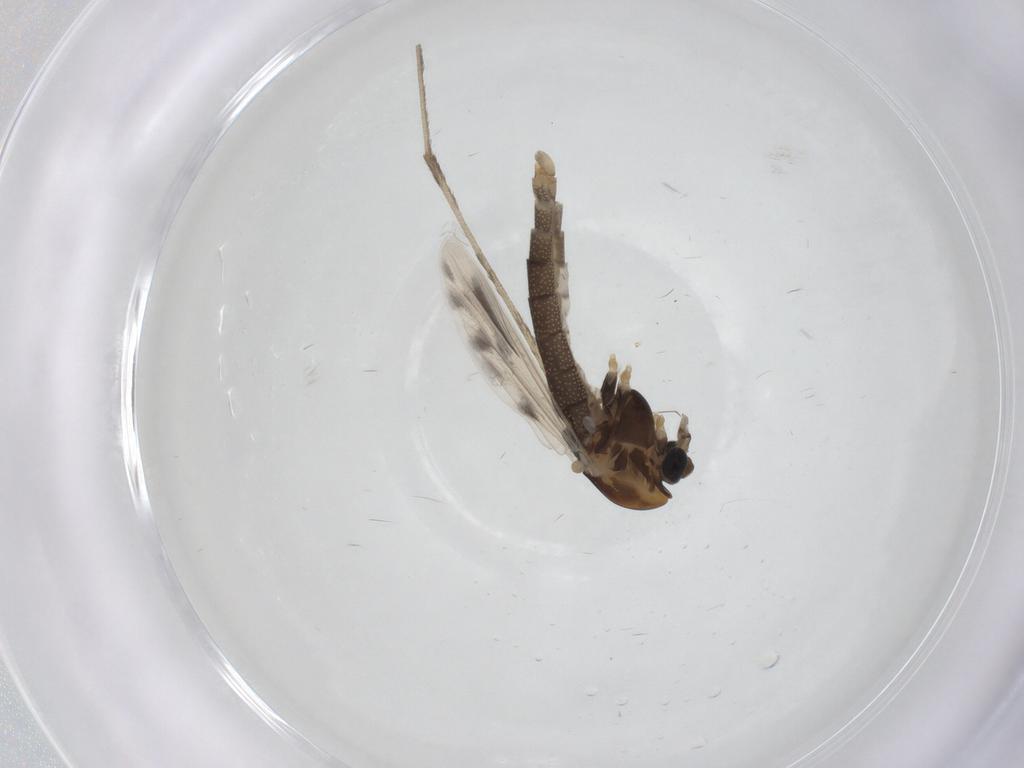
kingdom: Animalia
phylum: Arthropoda
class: Insecta
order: Diptera
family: Chironomidae
